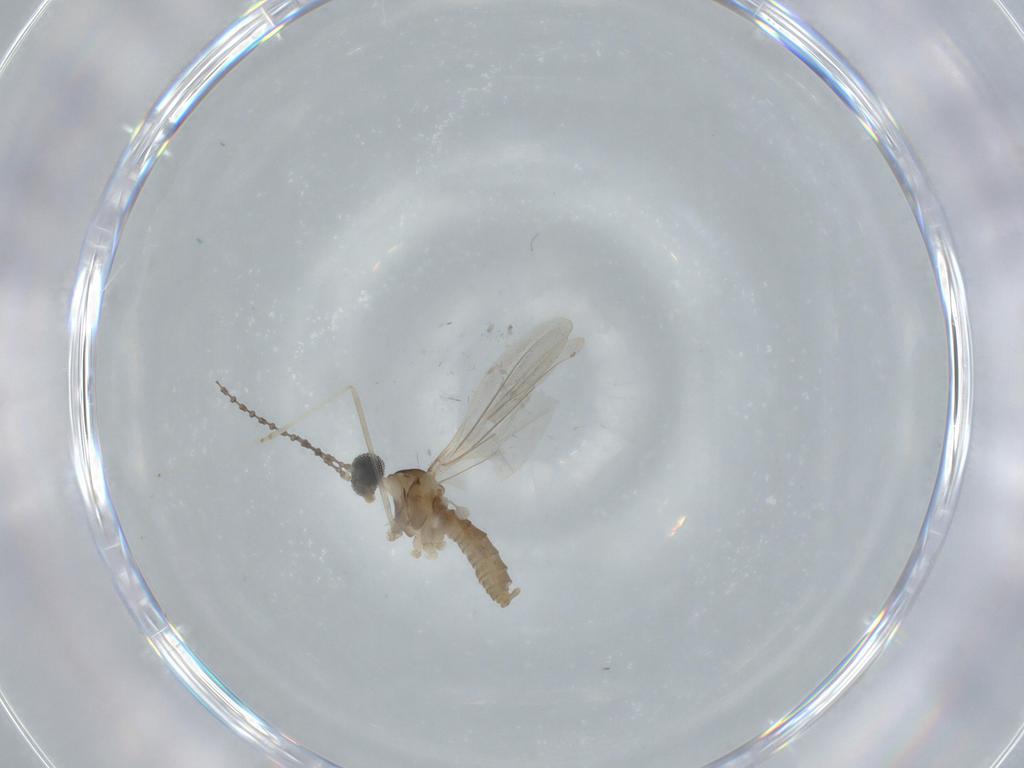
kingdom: Animalia
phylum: Arthropoda
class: Insecta
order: Diptera
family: Cecidomyiidae
